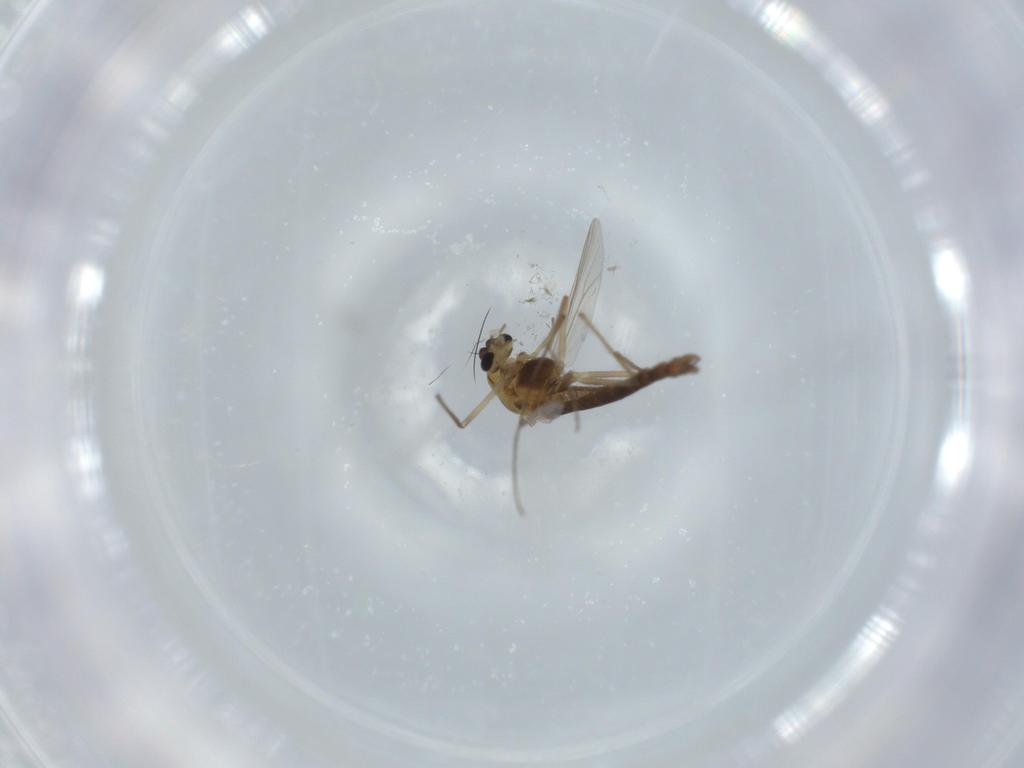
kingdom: Animalia
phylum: Arthropoda
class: Insecta
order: Diptera
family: Chironomidae
